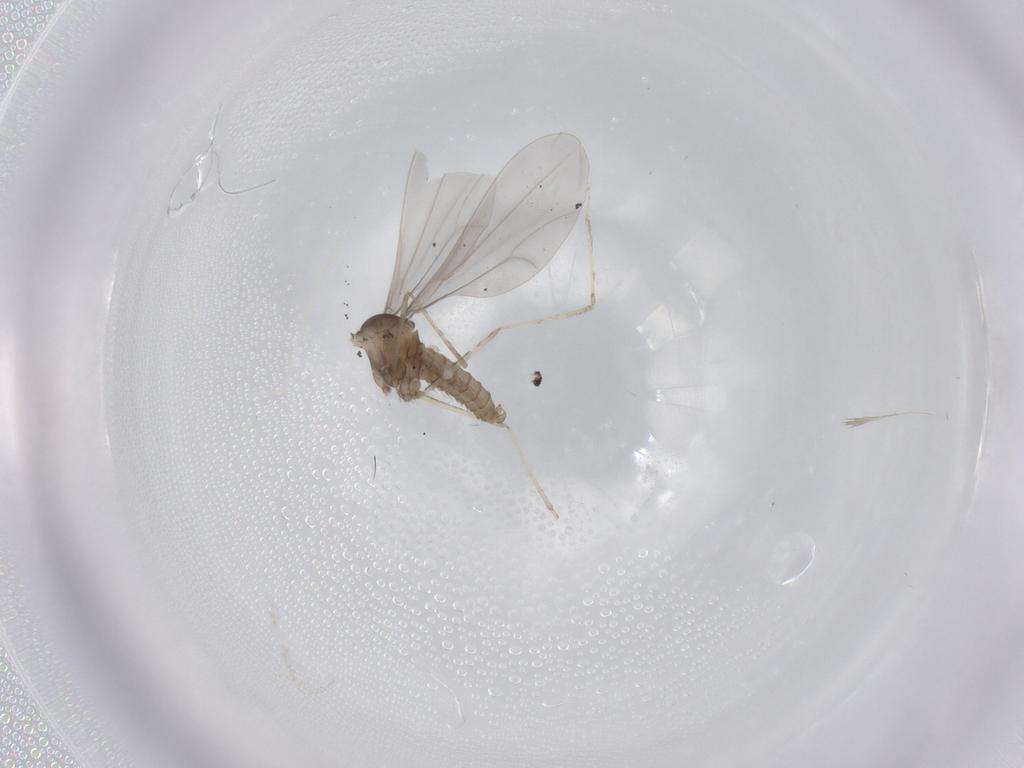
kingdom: Animalia
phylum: Arthropoda
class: Insecta
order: Diptera
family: Cecidomyiidae
